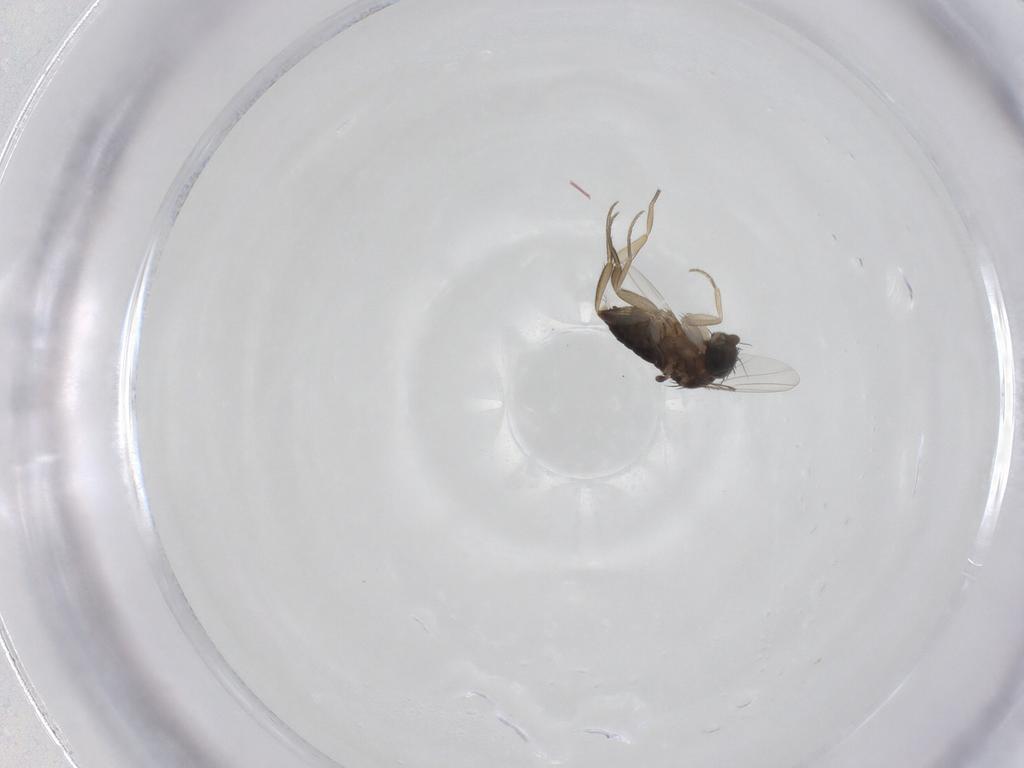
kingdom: Animalia
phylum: Arthropoda
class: Insecta
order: Diptera
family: Phoridae
